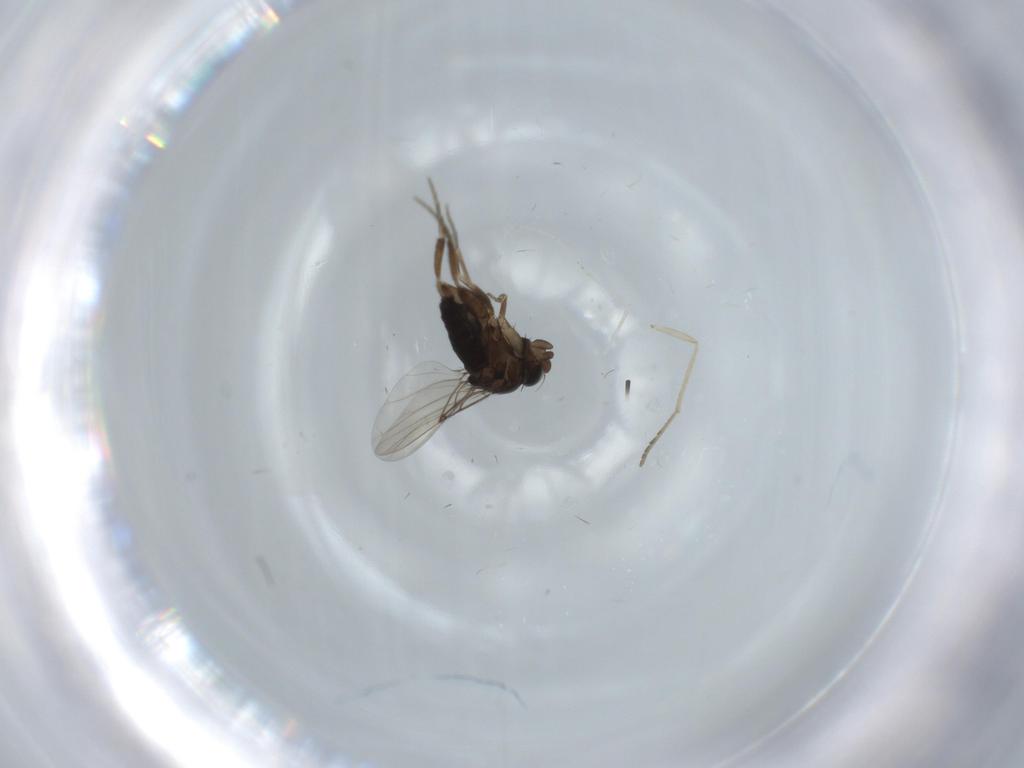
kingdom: Animalia
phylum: Arthropoda
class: Insecta
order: Diptera
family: Phoridae
